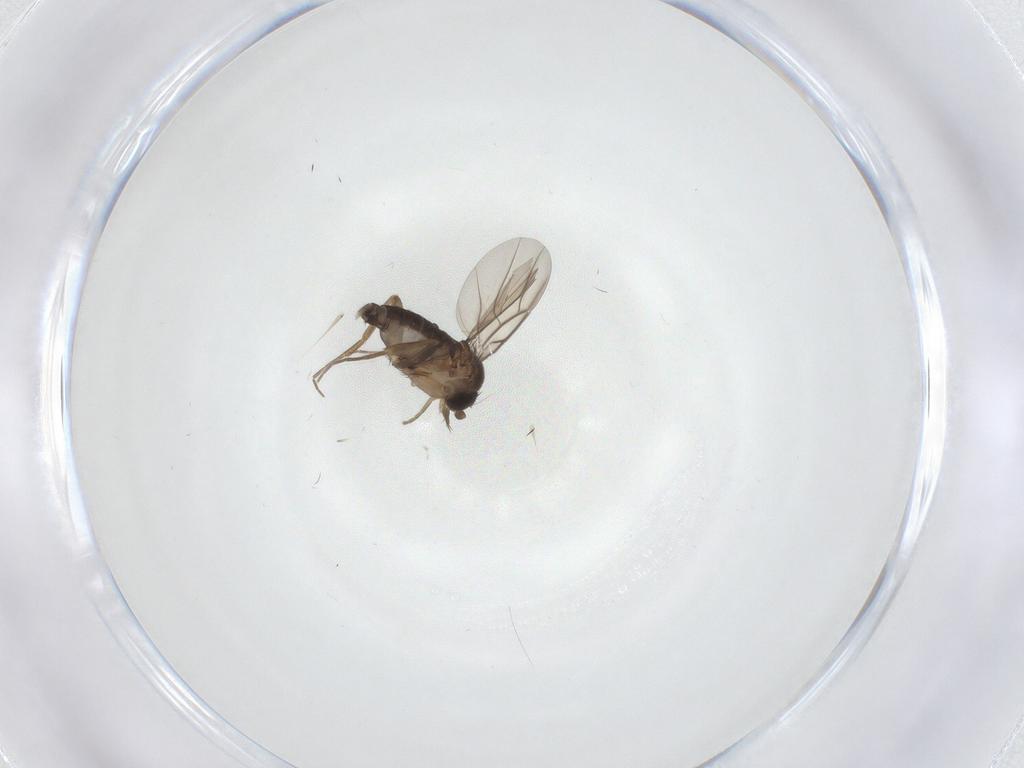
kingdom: Animalia
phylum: Arthropoda
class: Insecta
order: Diptera
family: Phoridae
